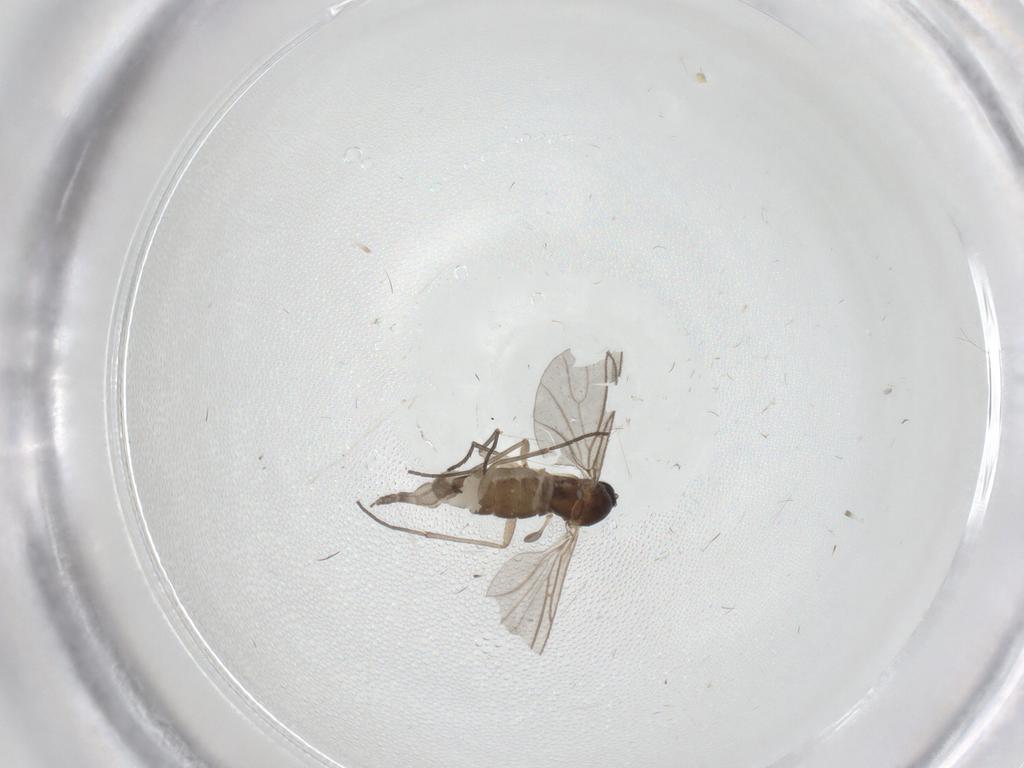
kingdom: Animalia
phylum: Arthropoda
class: Insecta
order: Diptera
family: Sciaridae
